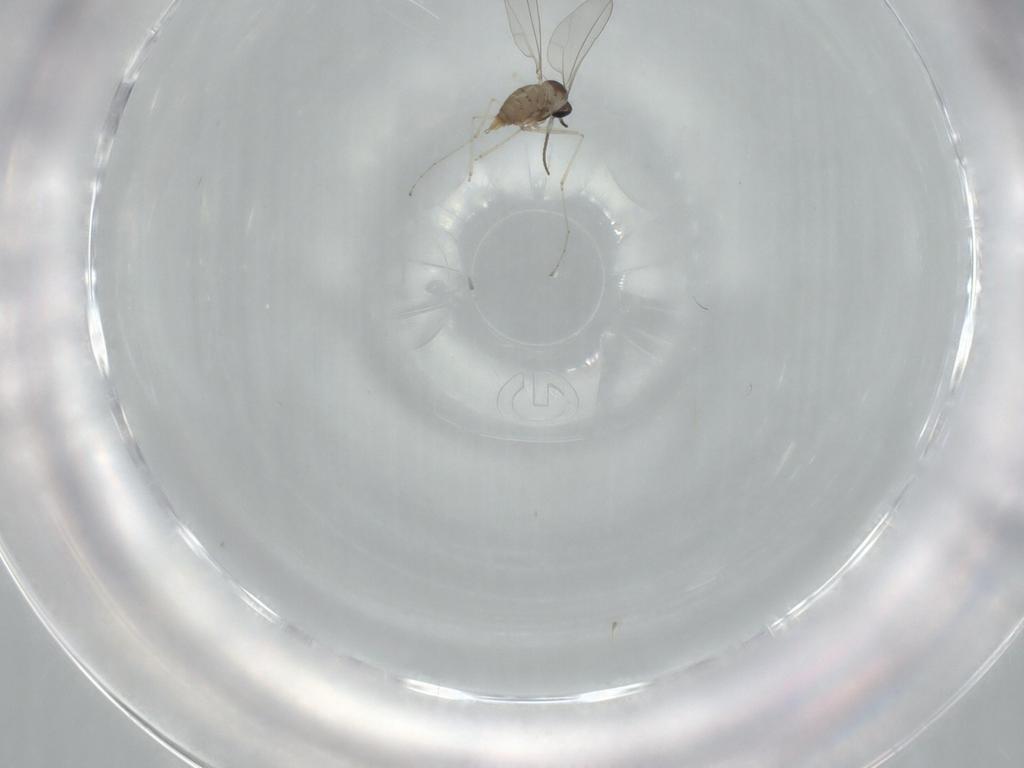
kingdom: Animalia
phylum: Arthropoda
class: Insecta
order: Diptera
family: Cecidomyiidae
